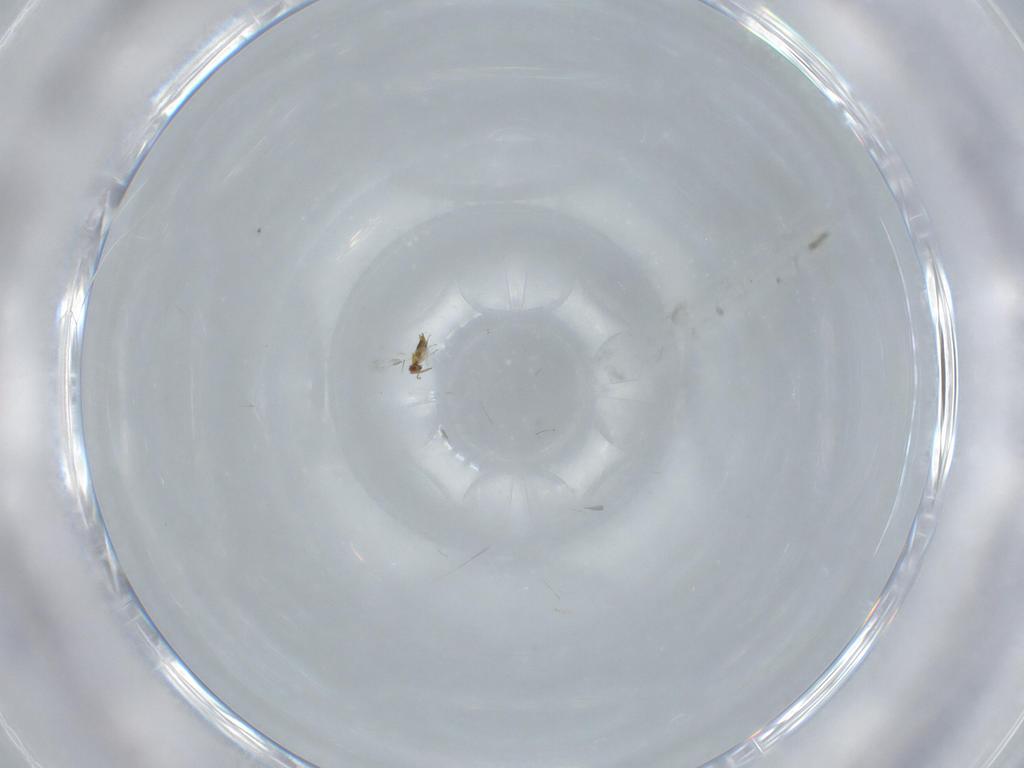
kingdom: Animalia
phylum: Arthropoda
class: Insecta
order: Hymenoptera
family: Aphelinidae
